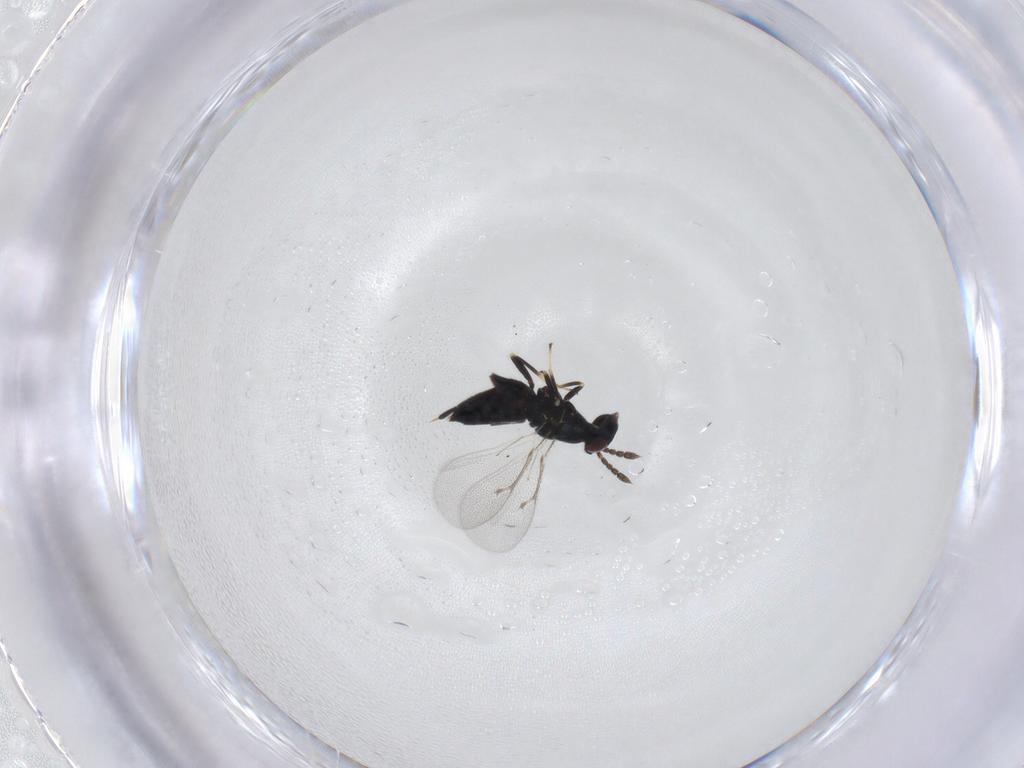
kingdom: Animalia
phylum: Arthropoda
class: Insecta
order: Hymenoptera
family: Eulophidae
